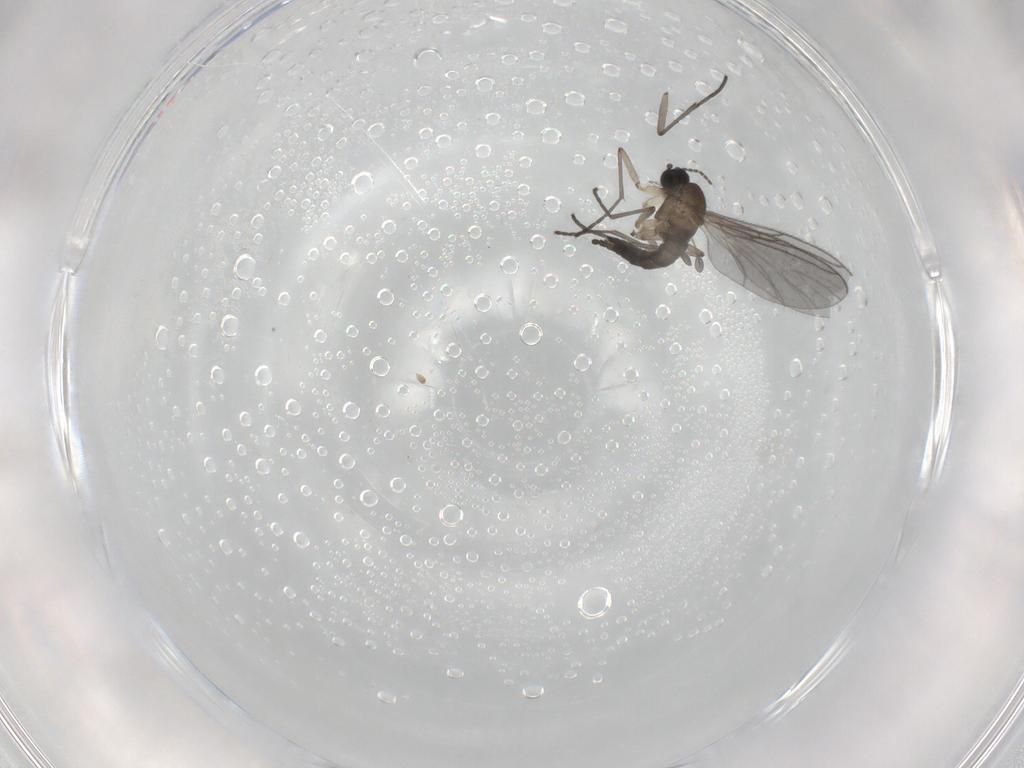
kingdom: Animalia
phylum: Arthropoda
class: Insecta
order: Diptera
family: Sciaridae
